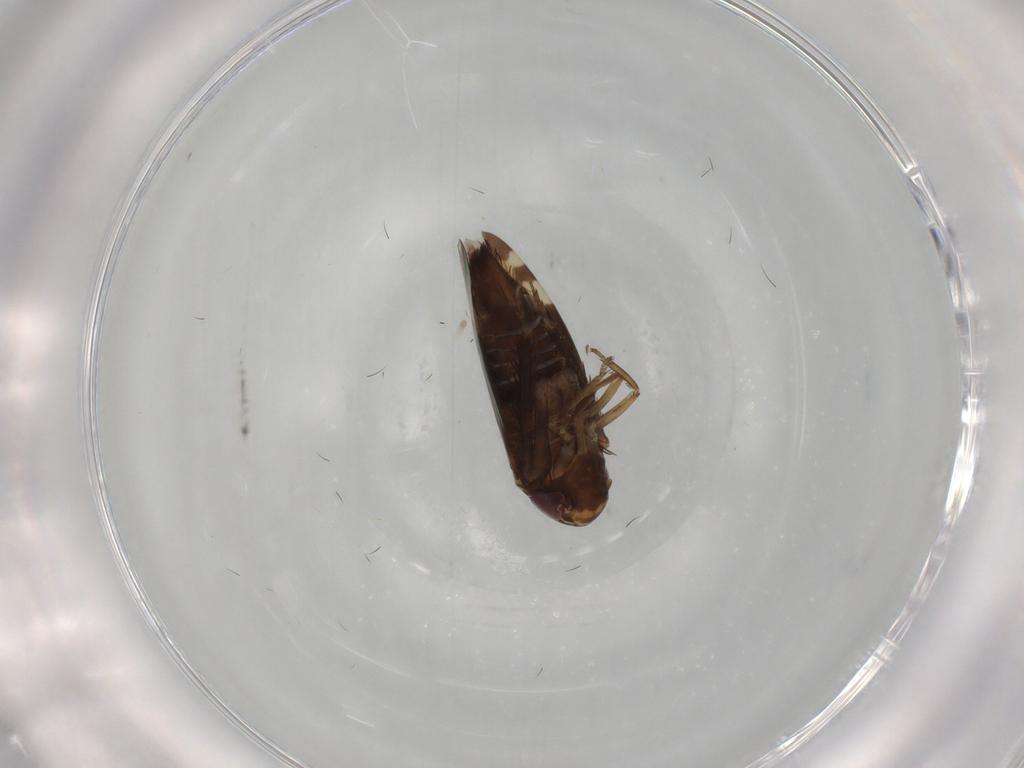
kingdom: Animalia
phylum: Arthropoda
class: Insecta
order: Hemiptera
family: Cicadellidae
